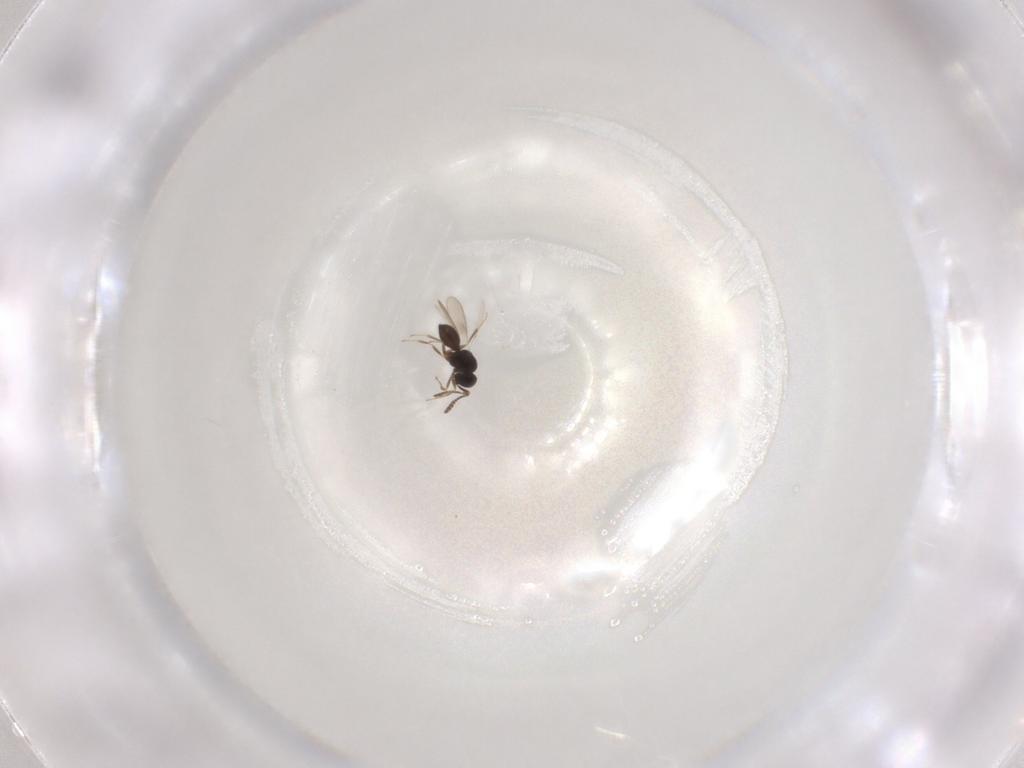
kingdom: Animalia
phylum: Arthropoda
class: Insecta
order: Hymenoptera
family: Scelionidae
